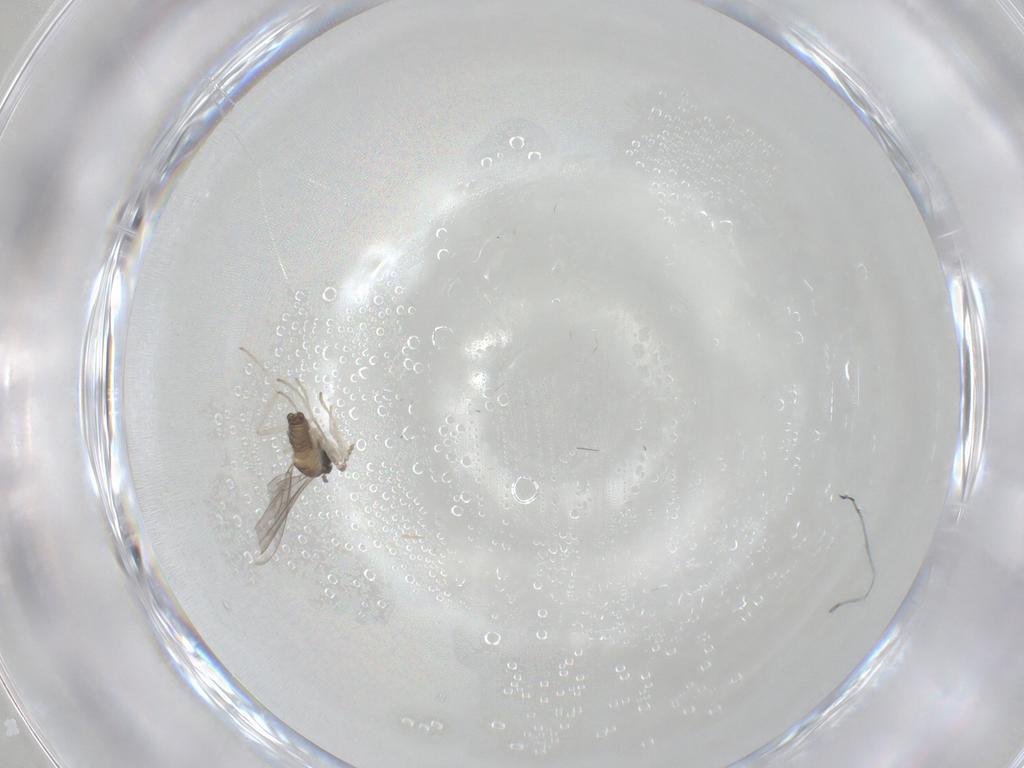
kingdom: Animalia
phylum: Arthropoda
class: Insecta
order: Diptera
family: Cecidomyiidae
